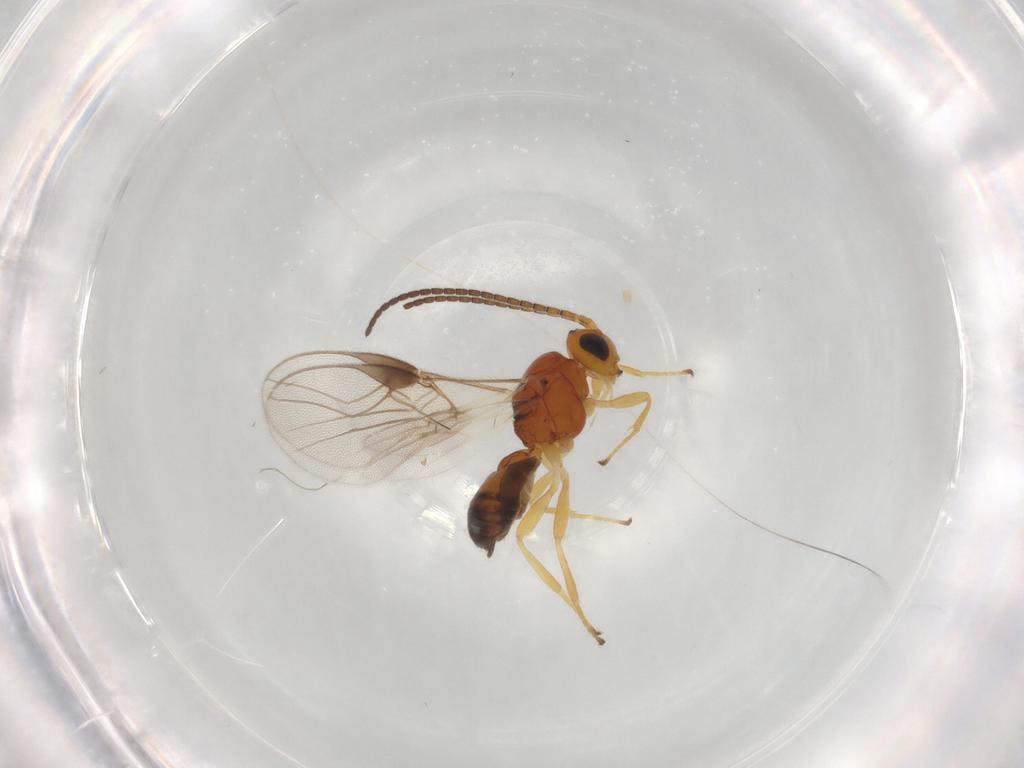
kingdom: Animalia
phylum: Arthropoda
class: Insecta
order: Hymenoptera
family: Braconidae
